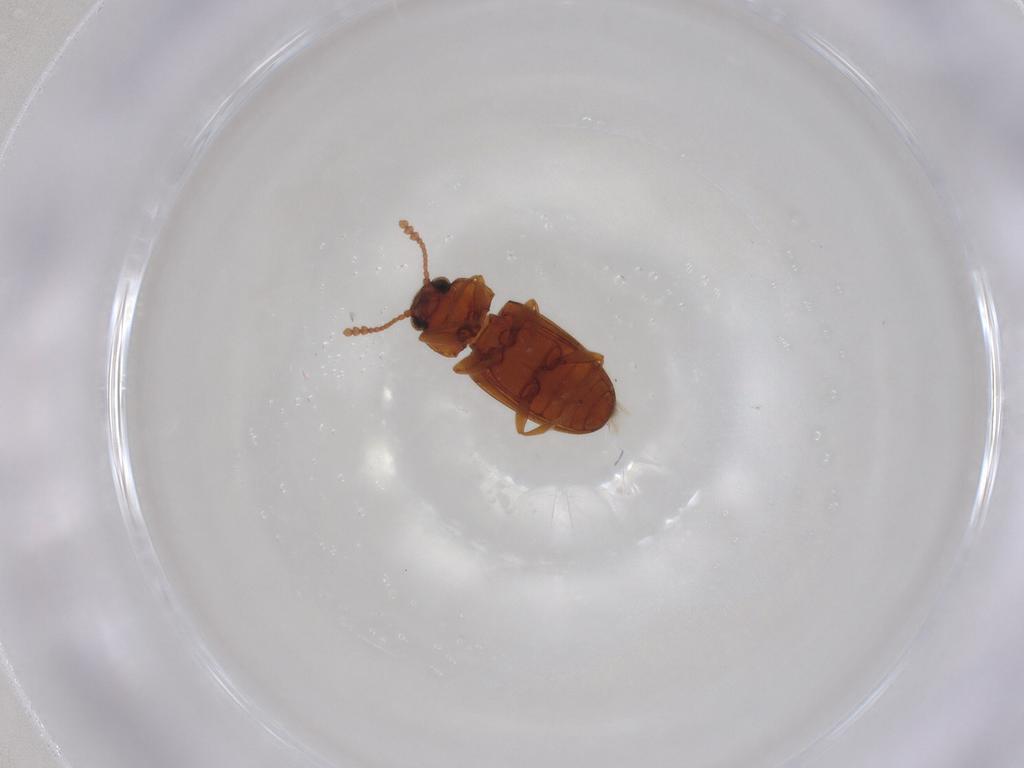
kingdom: Animalia
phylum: Arthropoda
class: Insecta
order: Coleoptera
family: Erotylidae
